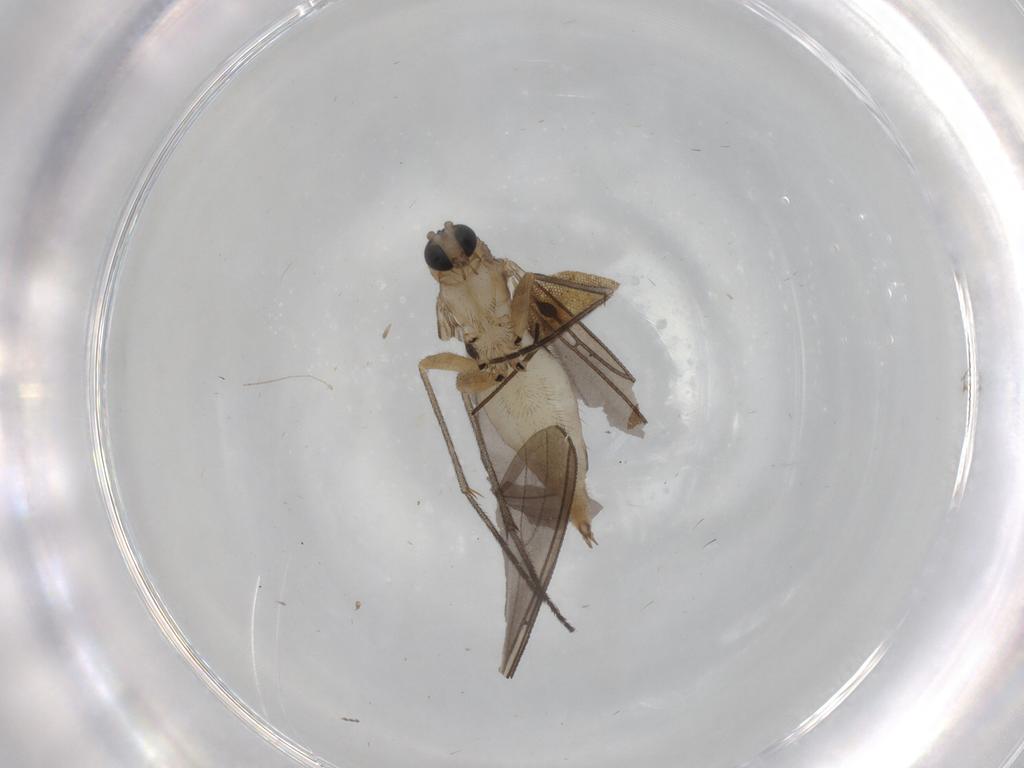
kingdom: Animalia
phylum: Arthropoda
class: Insecta
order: Diptera
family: Sciaridae
